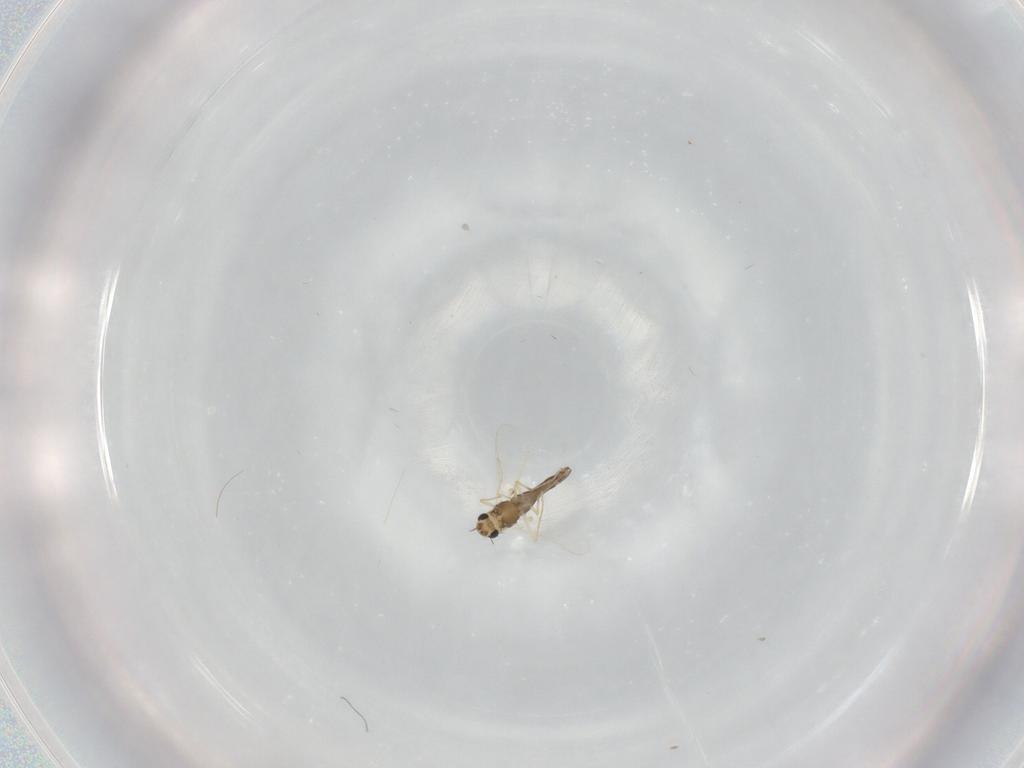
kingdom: Animalia
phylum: Arthropoda
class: Insecta
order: Diptera
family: Chironomidae
